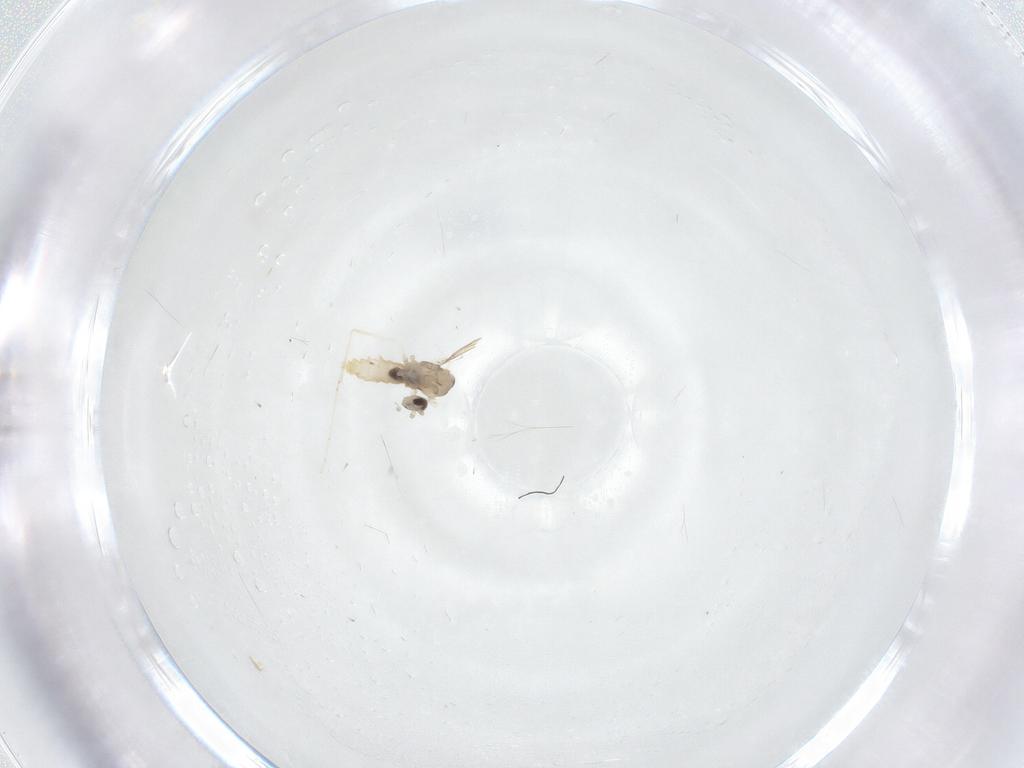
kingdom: Animalia
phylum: Arthropoda
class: Insecta
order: Diptera
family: Cecidomyiidae
